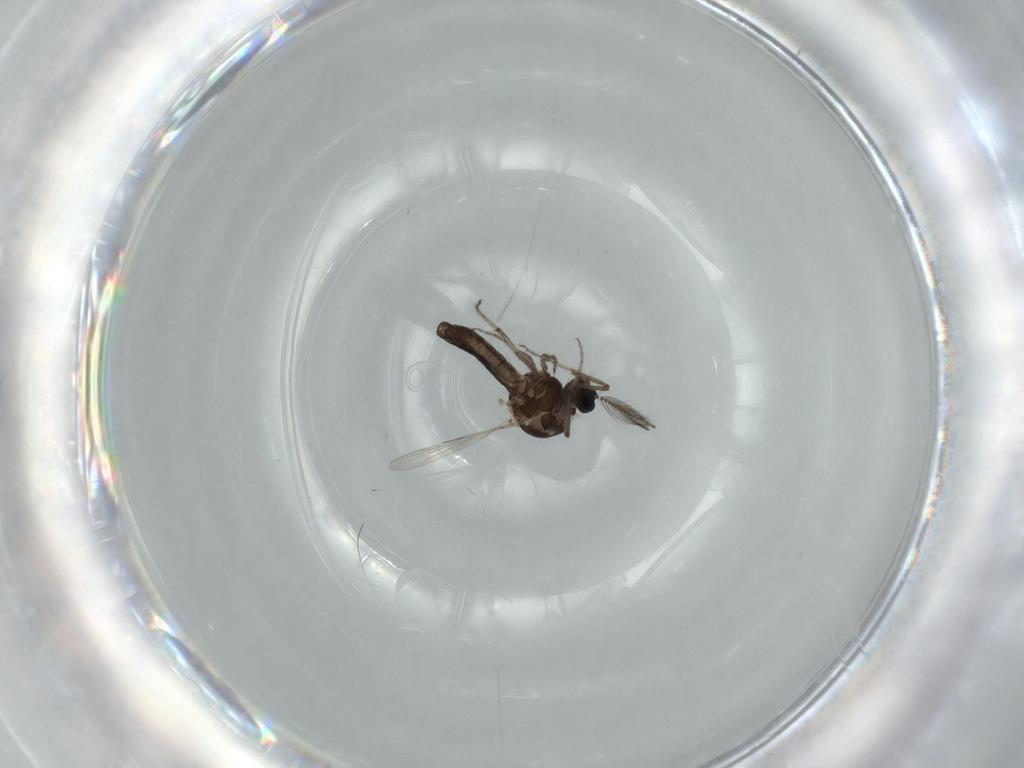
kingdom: Animalia
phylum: Arthropoda
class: Insecta
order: Diptera
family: Ceratopogonidae
